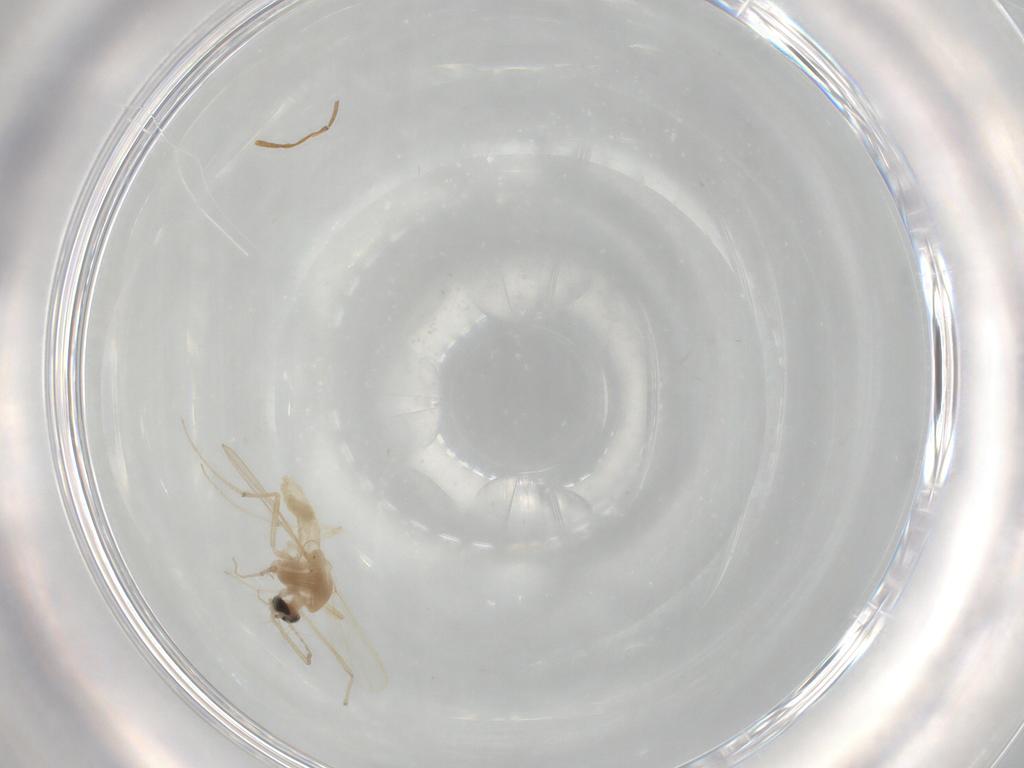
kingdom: Animalia
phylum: Arthropoda
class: Insecta
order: Diptera
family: Chironomidae
